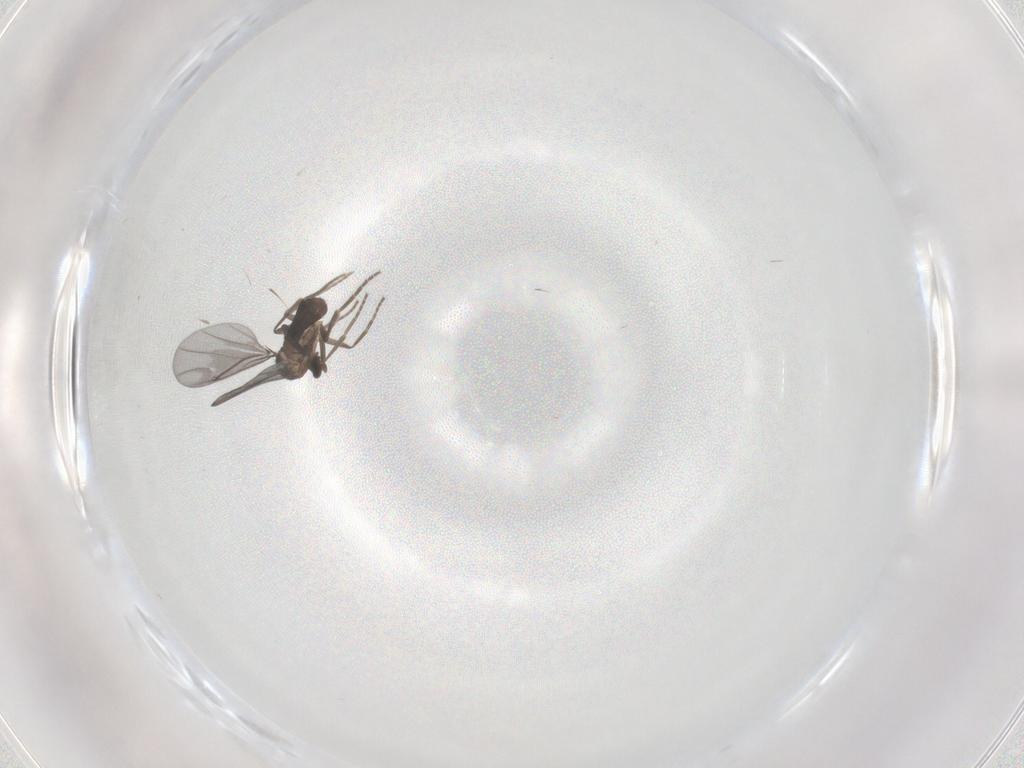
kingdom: Animalia
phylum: Arthropoda
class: Insecta
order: Diptera
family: Phoridae
